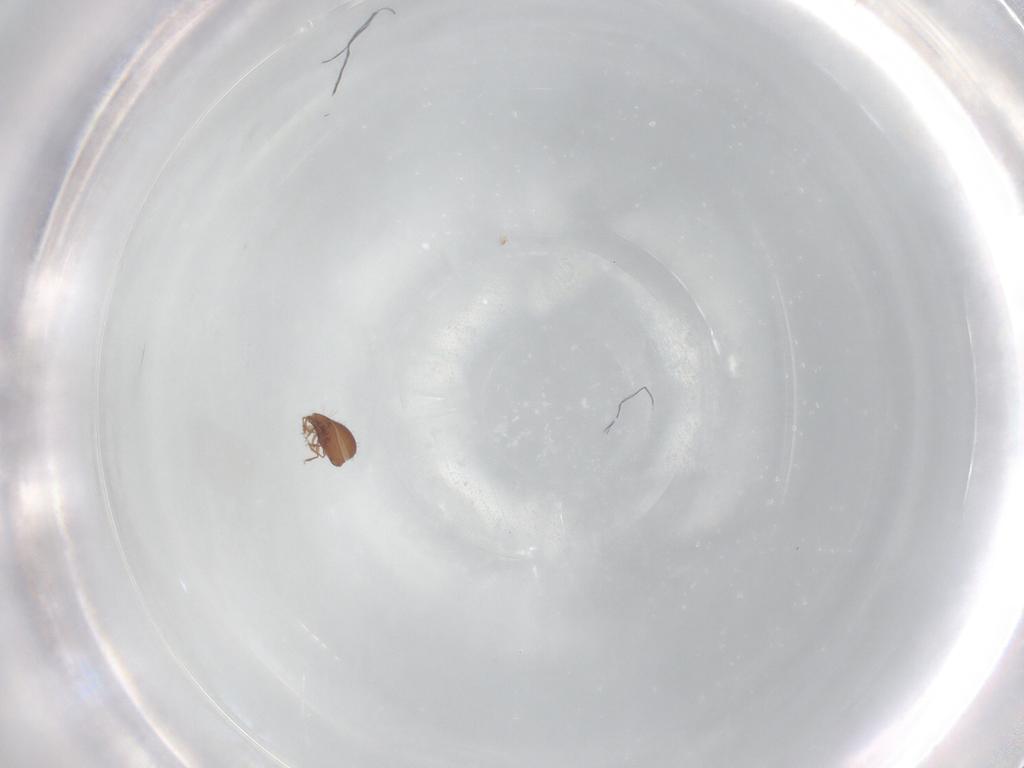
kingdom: Animalia
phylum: Arthropoda
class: Arachnida
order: Sarcoptiformes
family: Oribatulidae
